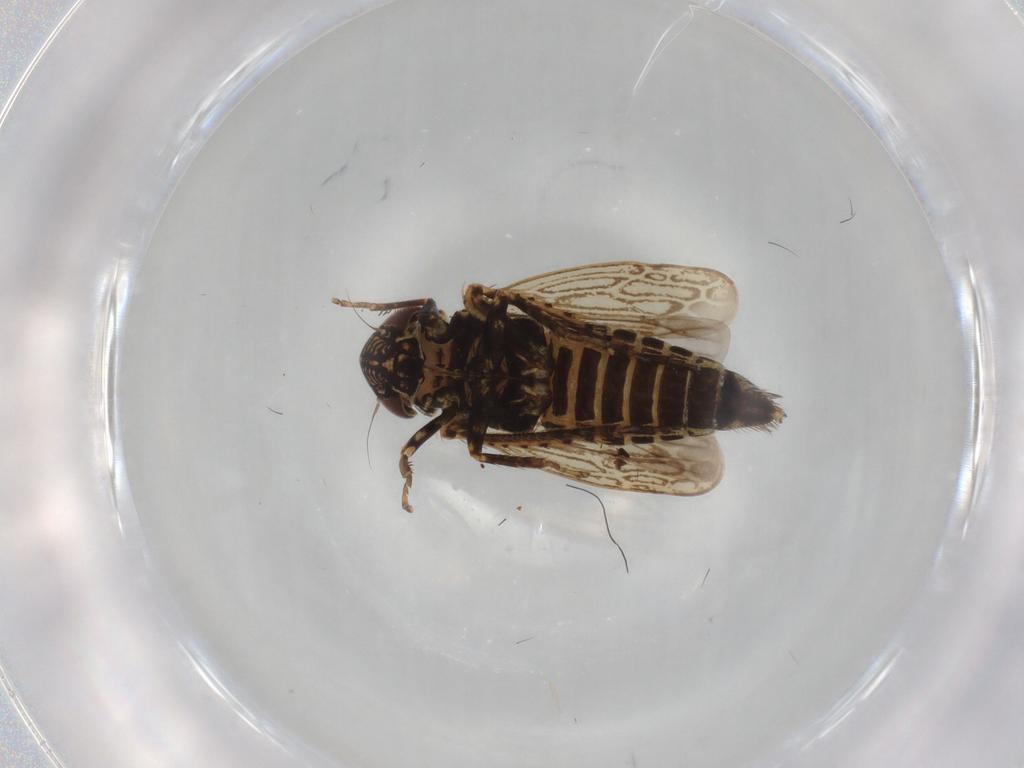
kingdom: Animalia
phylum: Arthropoda
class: Insecta
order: Hemiptera
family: Cicadellidae
